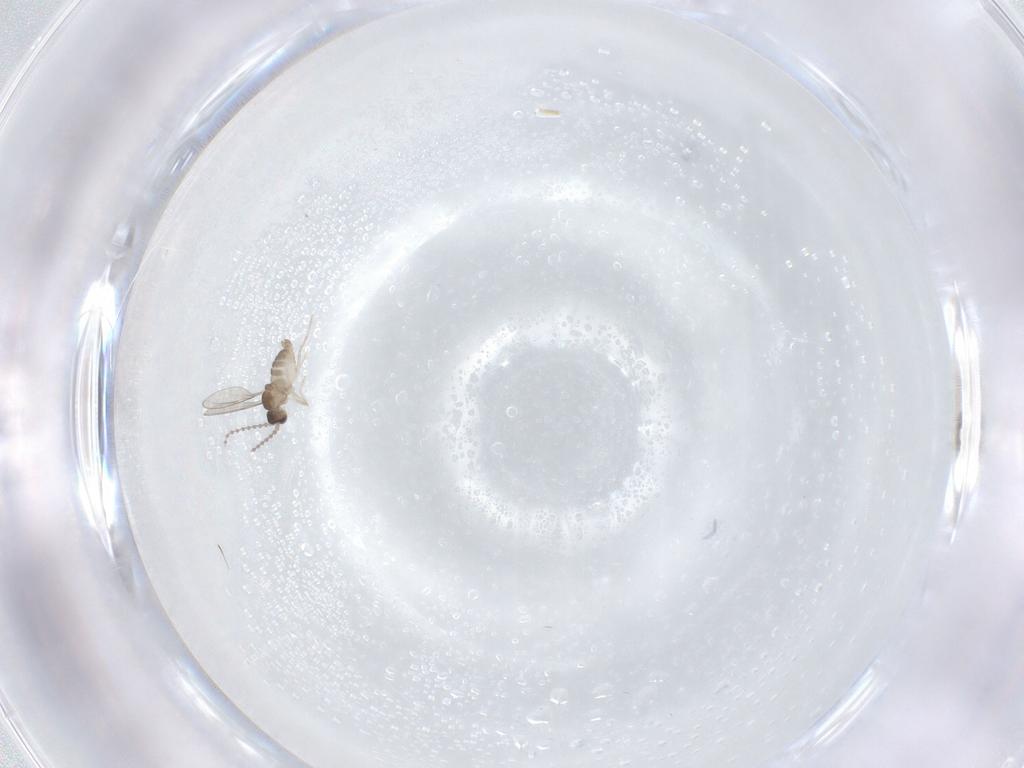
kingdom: Animalia
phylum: Arthropoda
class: Insecta
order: Diptera
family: Cecidomyiidae
